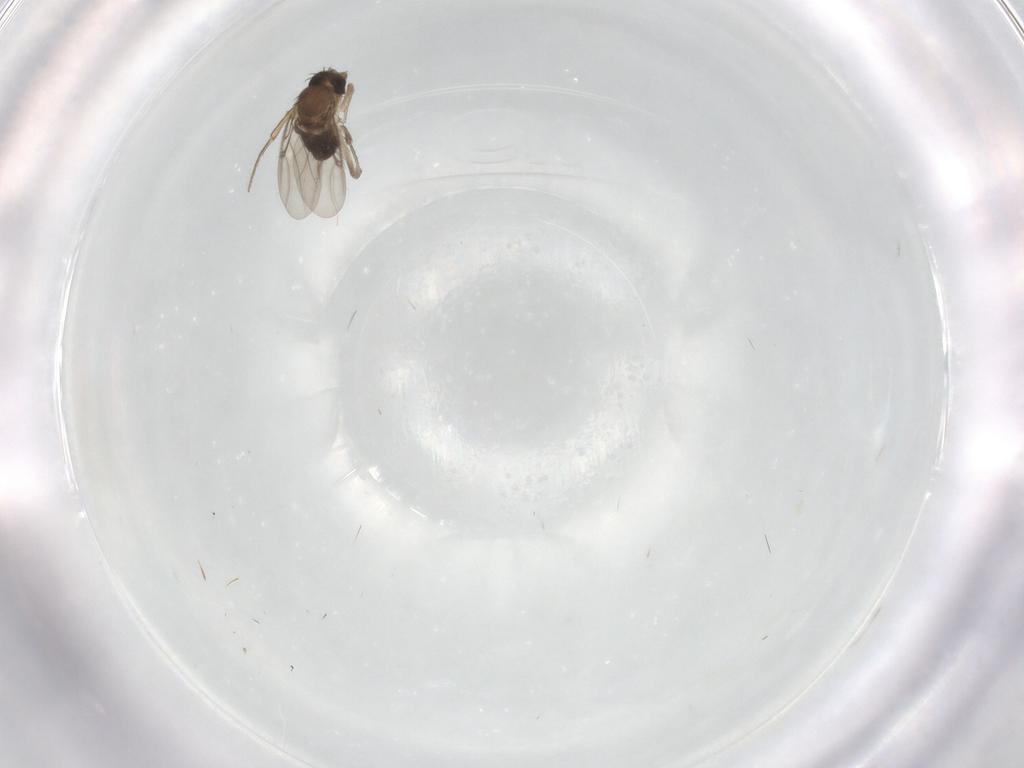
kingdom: Animalia
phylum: Arthropoda
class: Insecta
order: Diptera
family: Phoridae
